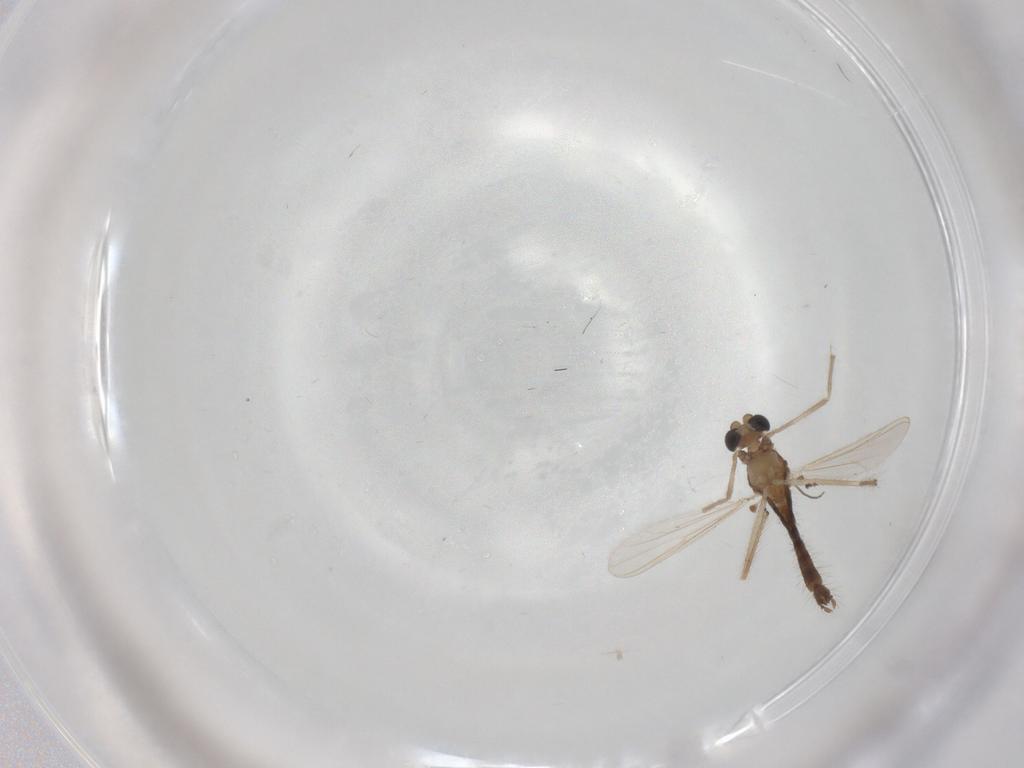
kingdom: Animalia
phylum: Arthropoda
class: Insecta
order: Diptera
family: Chironomidae
